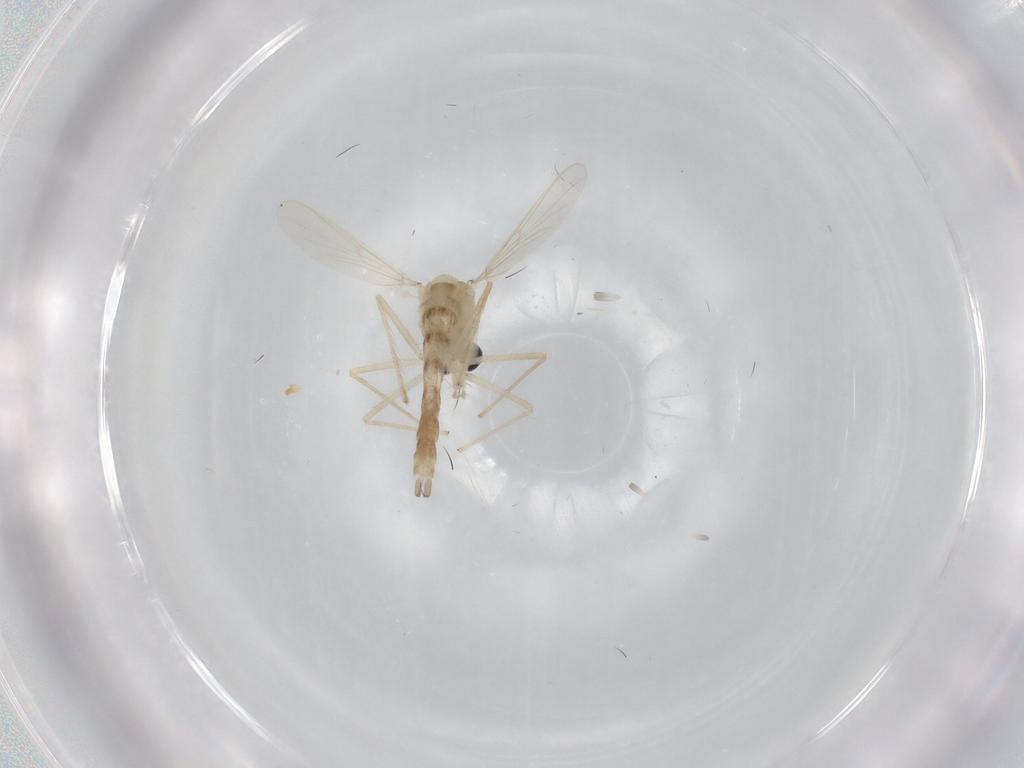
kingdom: Animalia
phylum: Arthropoda
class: Insecta
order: Diptera
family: Chironomidae
